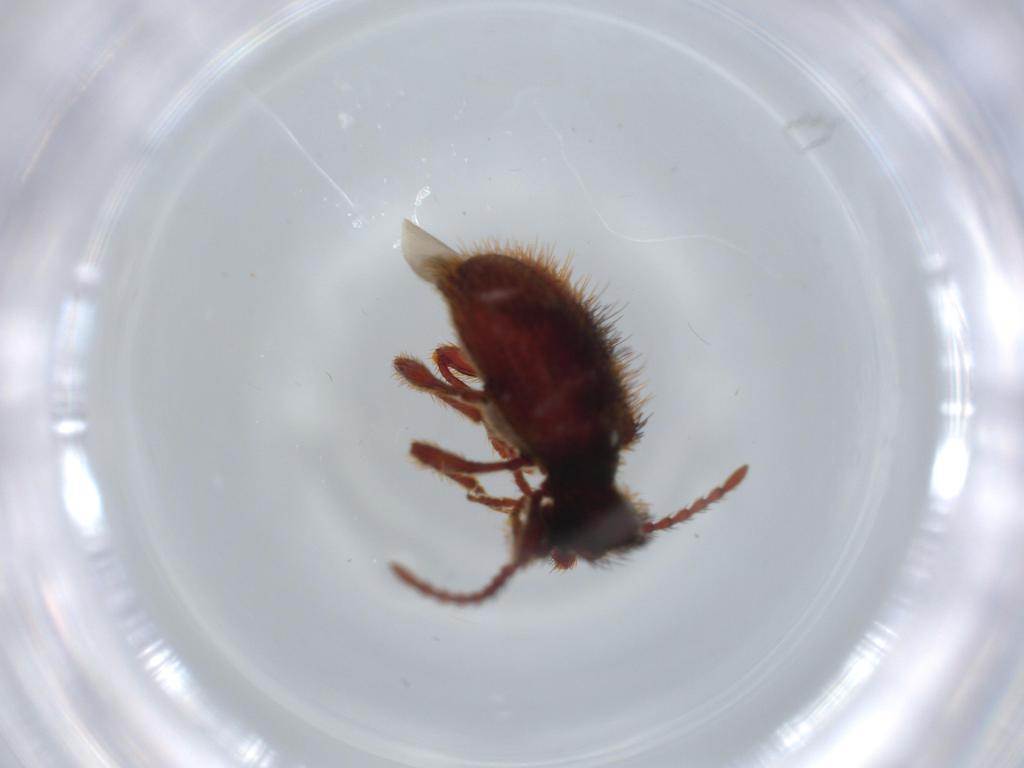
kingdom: Animalia
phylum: Arthropoda
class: Insecta
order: Coleoptera
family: Ptinidae
